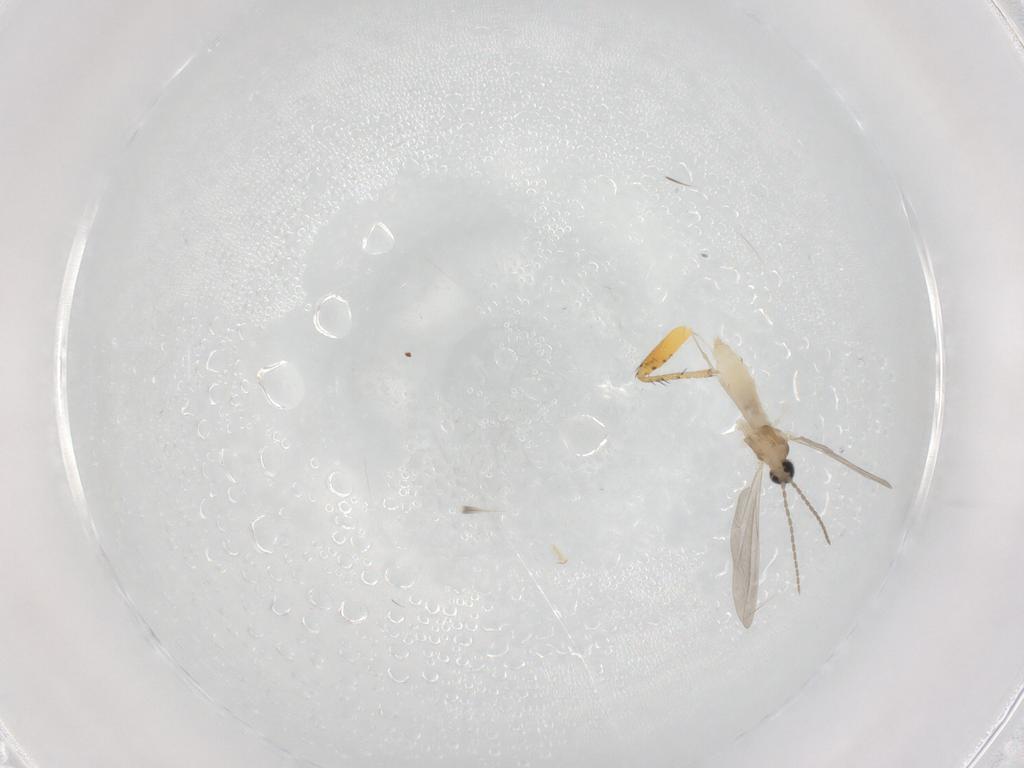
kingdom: Animalia
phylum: Arthropoda
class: Insecta
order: Diptera
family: Cecidomyiidae
